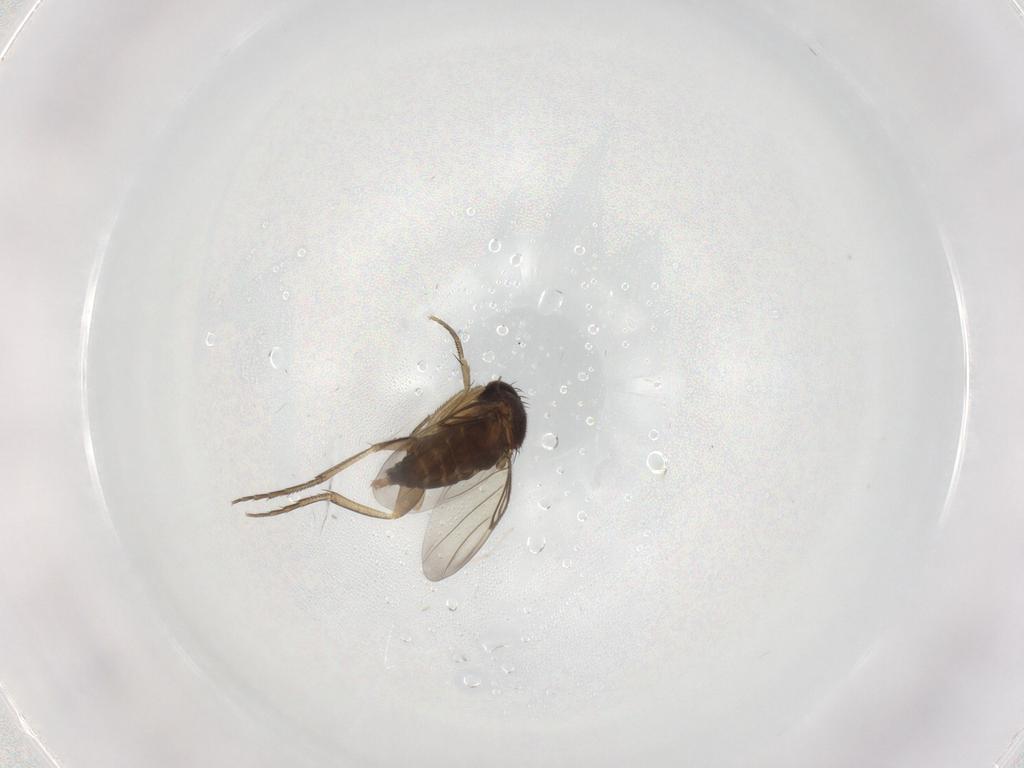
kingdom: Animalia
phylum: Arthropoda
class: Insecta
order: Diptera
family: Phoridae
